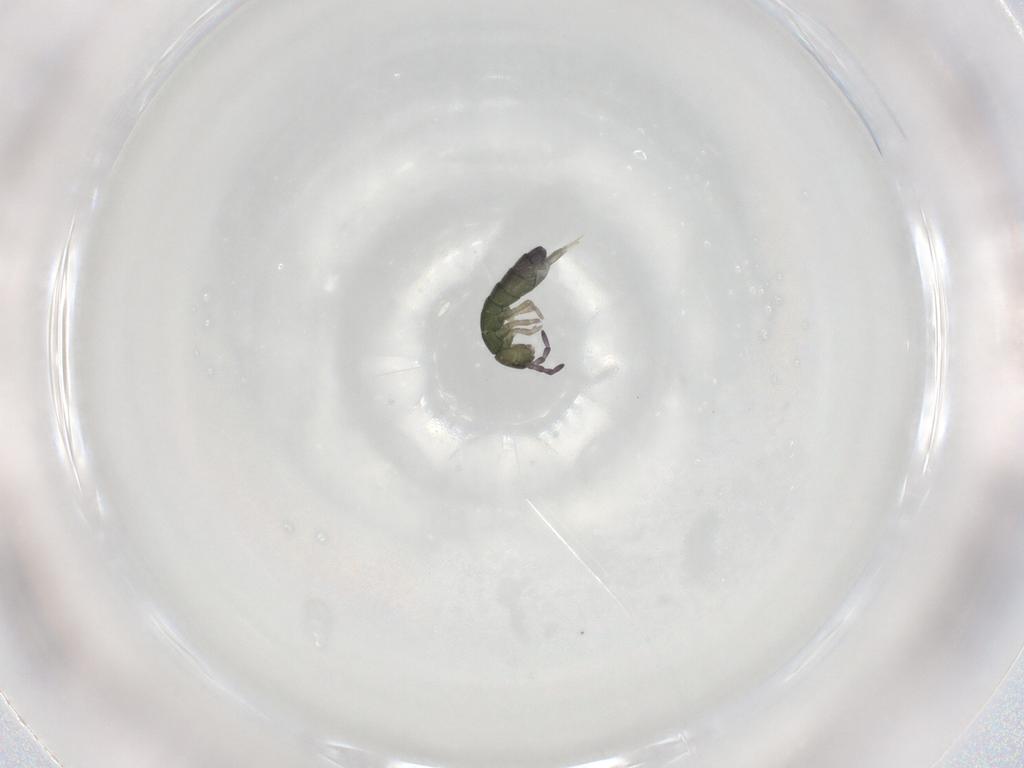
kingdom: Animalia
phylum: Arthropoda
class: Collembola
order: Entomobryomorpha
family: Isotomidae
